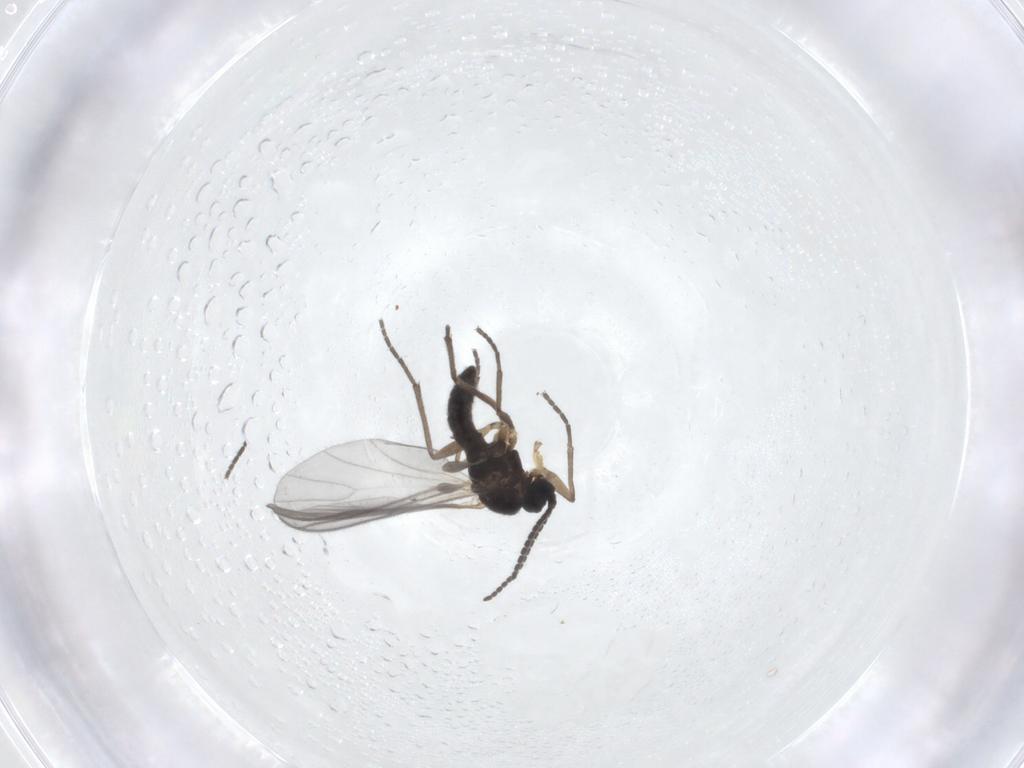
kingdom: Animalia
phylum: Arthropoda
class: Insecta
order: Diptera
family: Sciaridae
